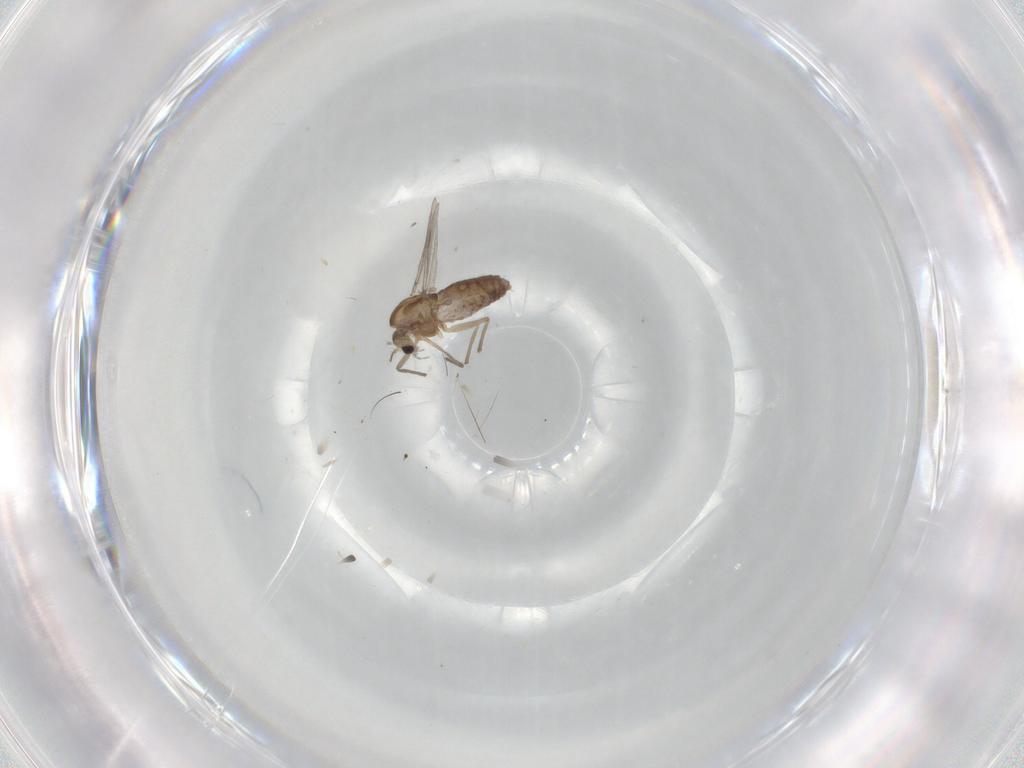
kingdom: Animalia
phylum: Arthropoda
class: Insecta
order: Diptera
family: Chironomidae
